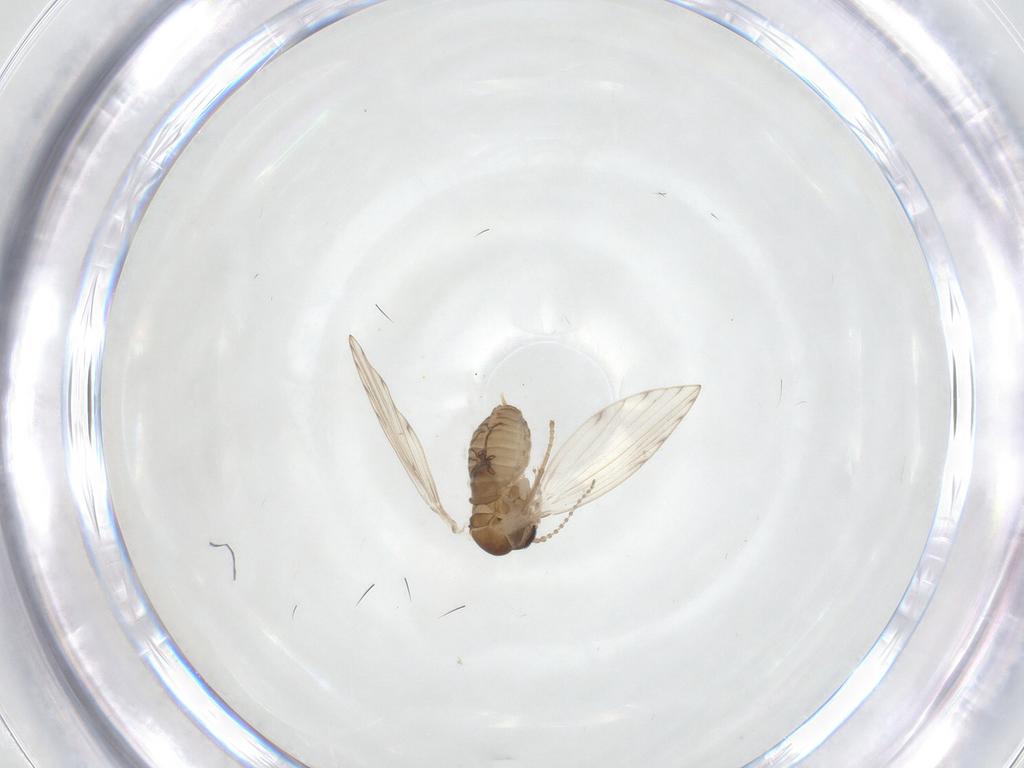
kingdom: Animalia
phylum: Arthropoda
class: Insecta
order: Diptera
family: Psychodidae
